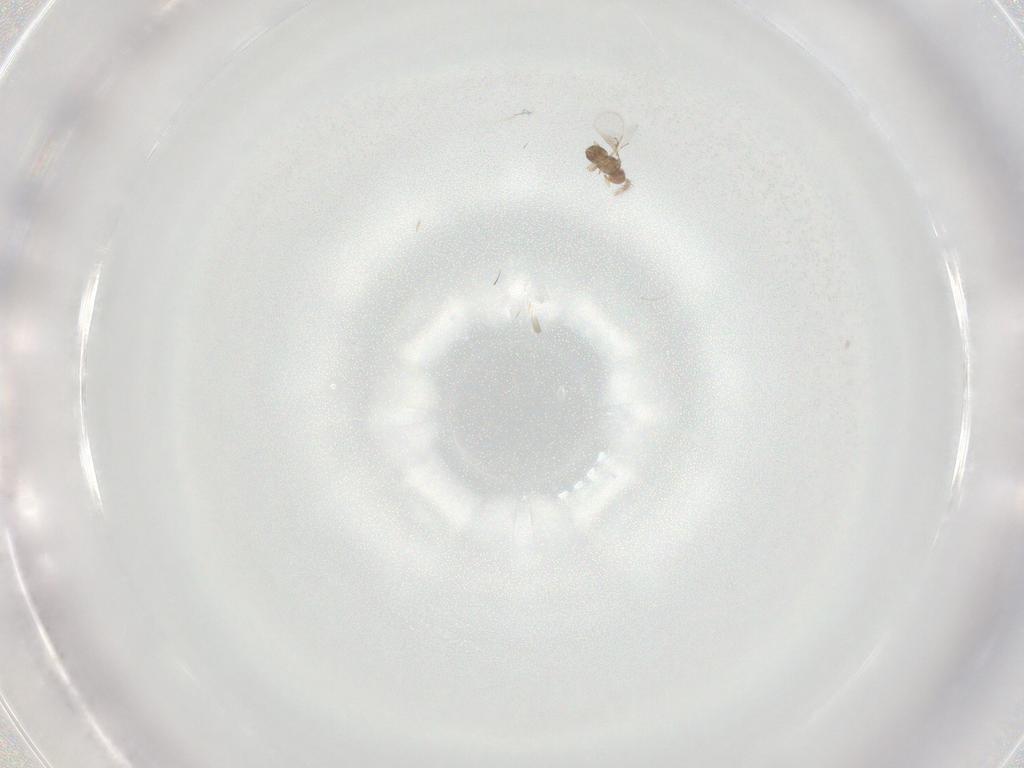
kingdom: Animalia
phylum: Arthropoda
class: Insecta
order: Hymenoptera
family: Trichogrammatidae
